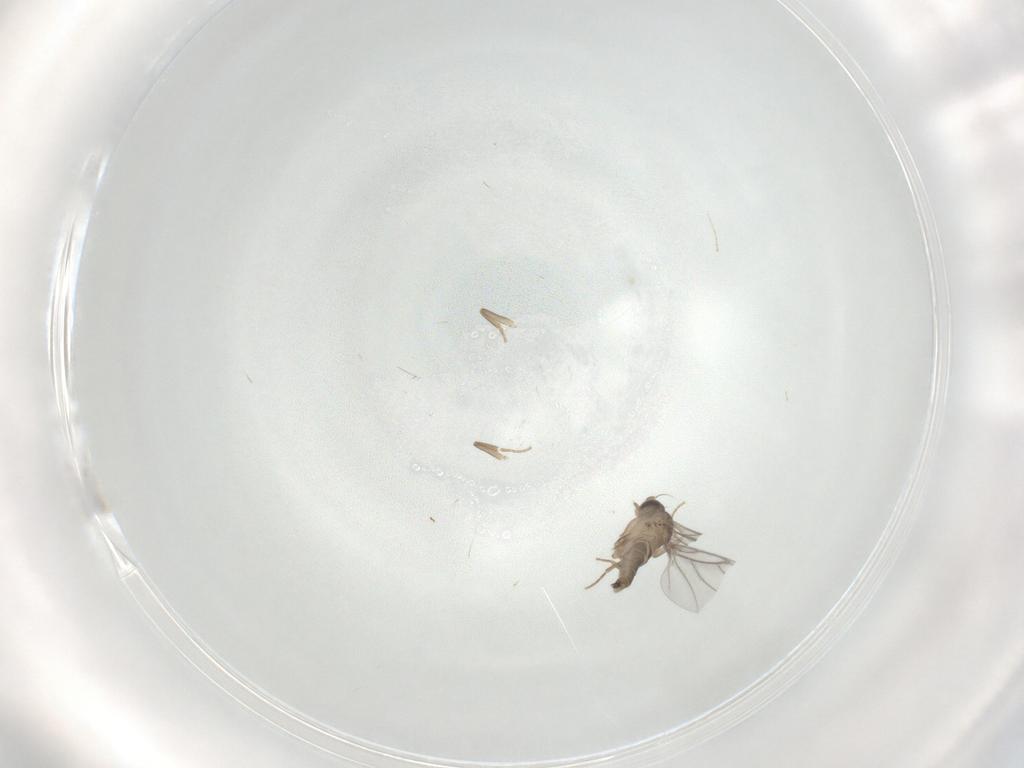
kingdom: Animalia
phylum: Arthropoda
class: Insecta
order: Diptera
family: Cecidomyiidae
